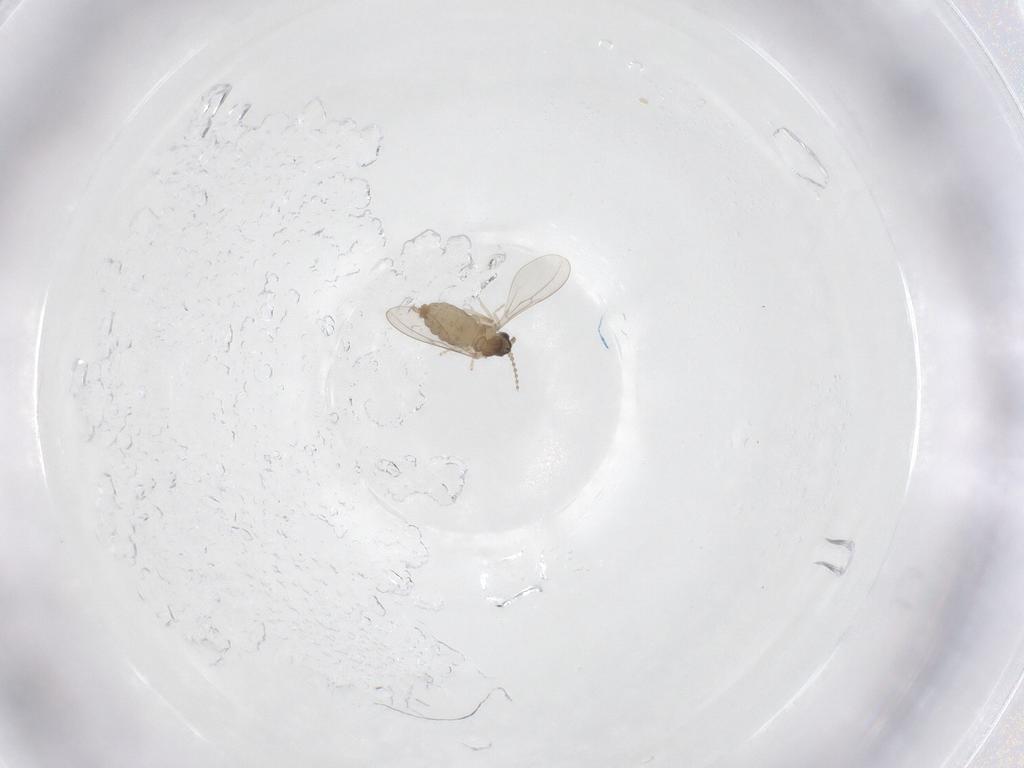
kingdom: Animalia
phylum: Arthropoda
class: Insecta
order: Diptera
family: Cecidomyiidae
